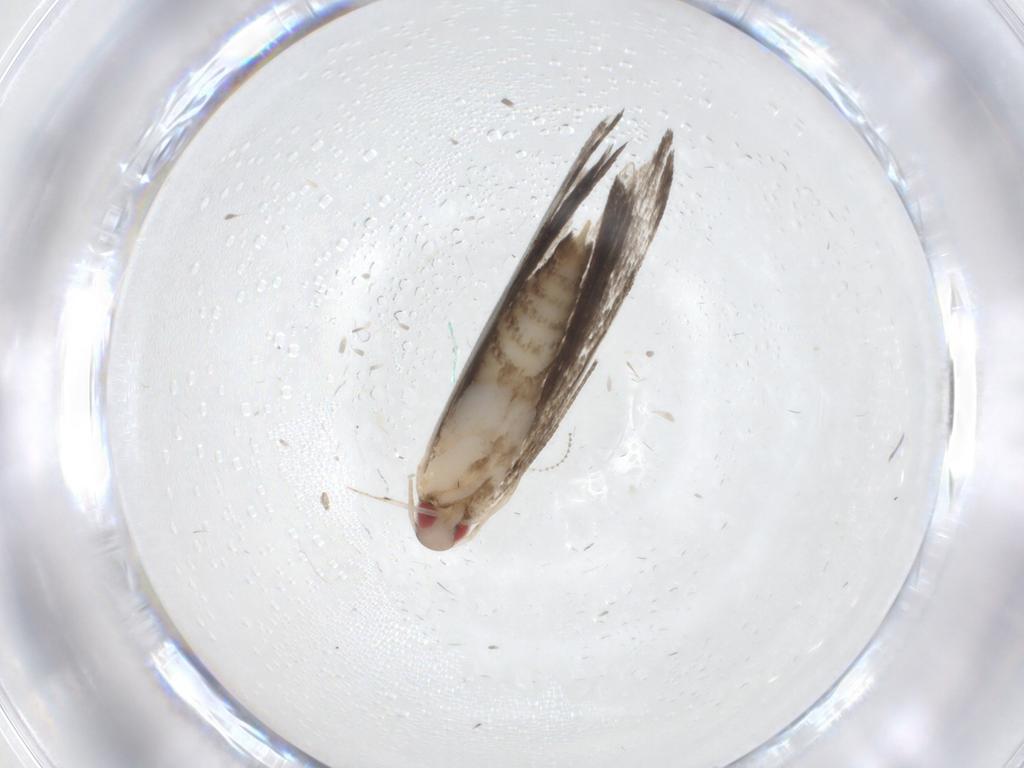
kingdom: Animalia
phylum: Arthropoda
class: Insecta
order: Lepidoptera
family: Gelechiidae
